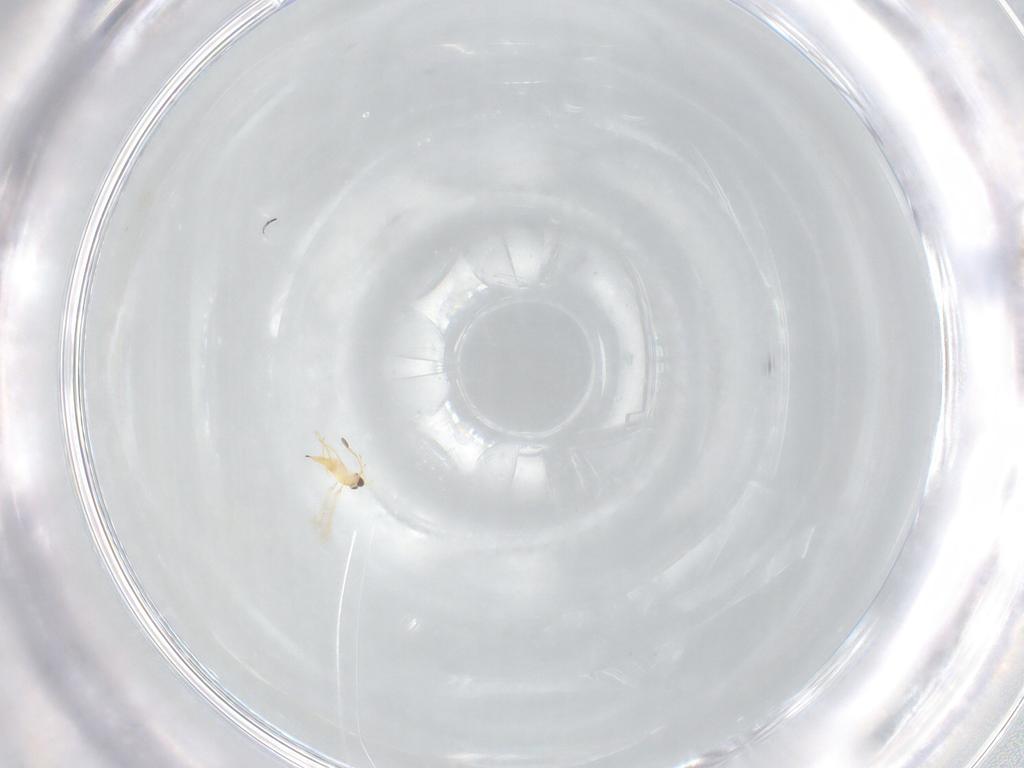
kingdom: Animalia
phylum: Arthropoda
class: Insecta
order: Hymenoptera
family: Mymaridae
